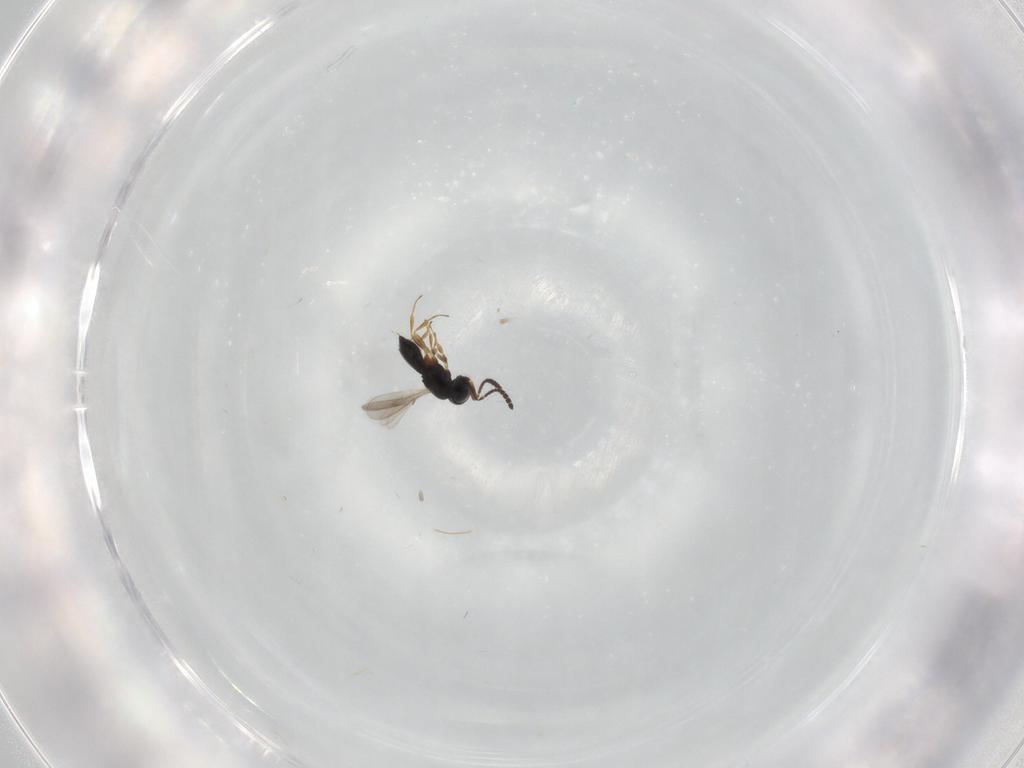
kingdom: Animalia
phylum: Arthropoda
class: Insecta
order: Hymenoptera
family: Scelionidae
